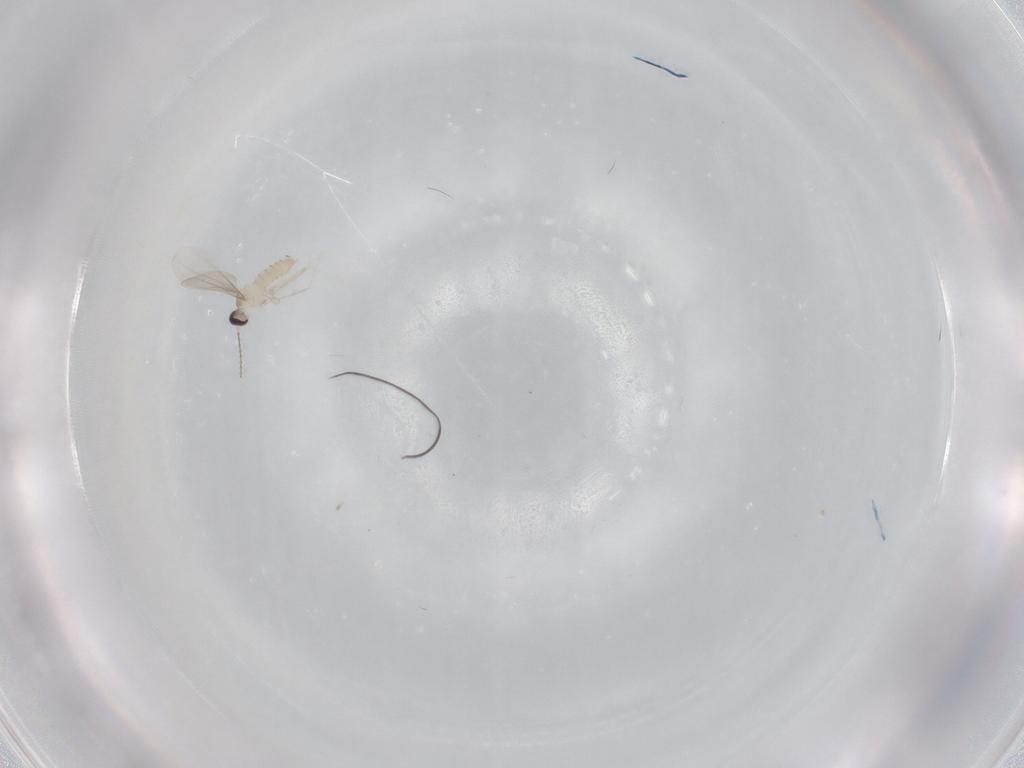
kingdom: Animalia
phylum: Arthropoda
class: Insecta
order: Diptera
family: Cecidomyiidae
